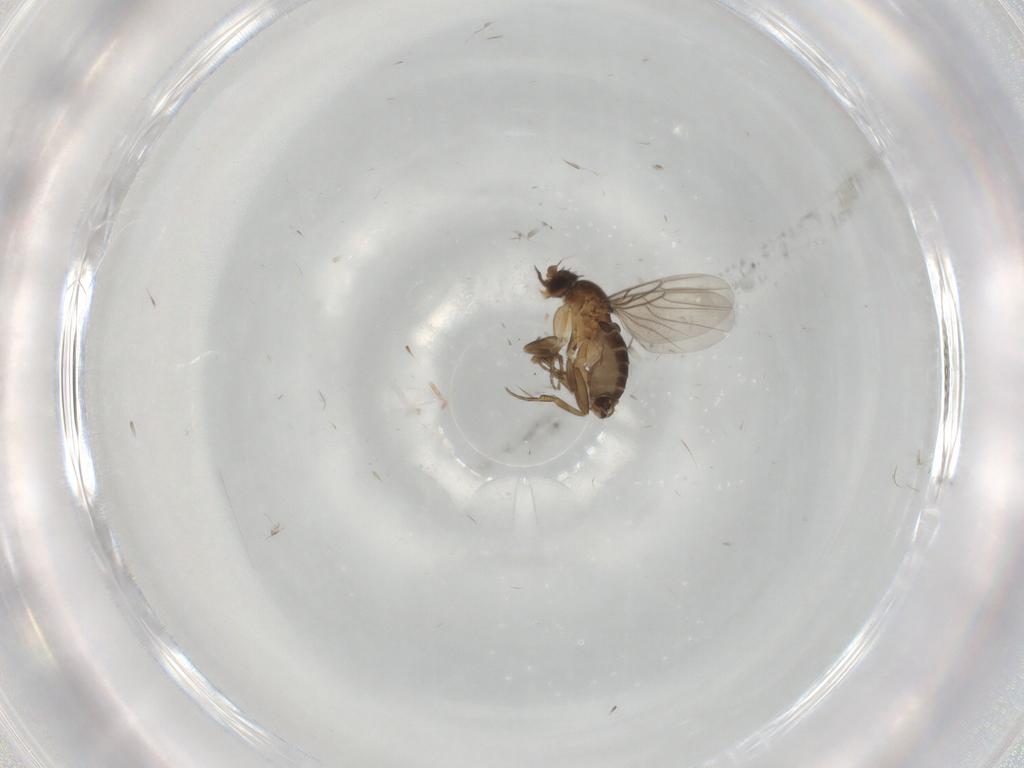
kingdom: Animalia
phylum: Arthropoda
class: Insecta
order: Diptera
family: Phoridae
